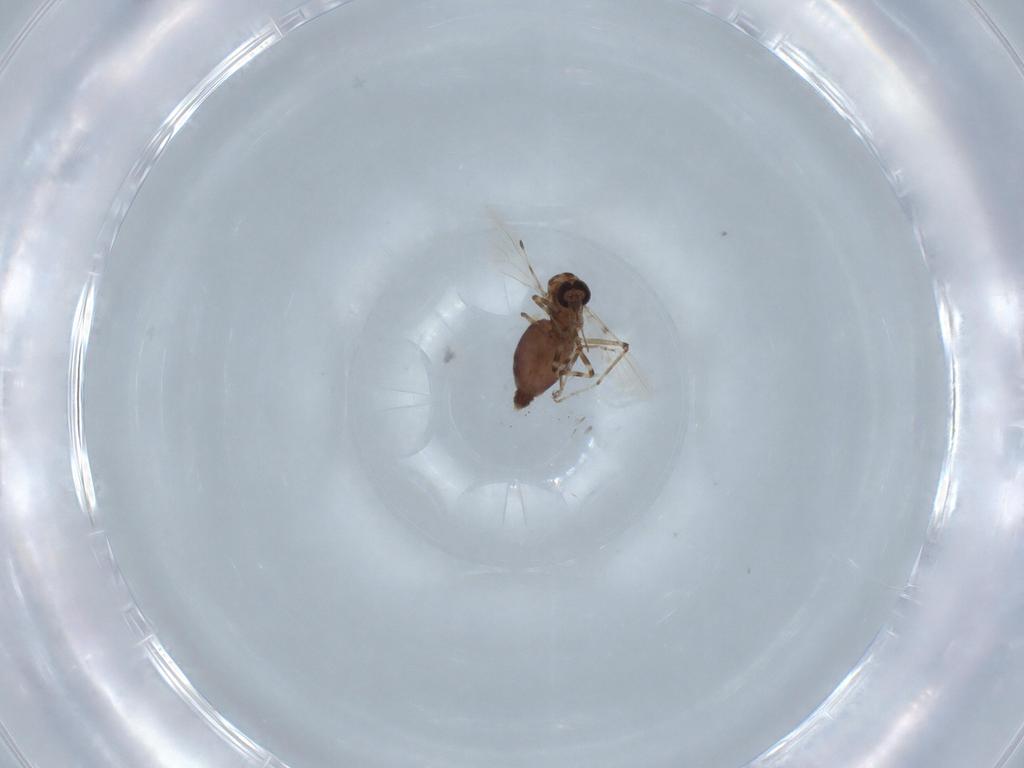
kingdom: Animalia
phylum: Arthropoda
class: Insecta
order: Diptera
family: Ceratopogonidae
